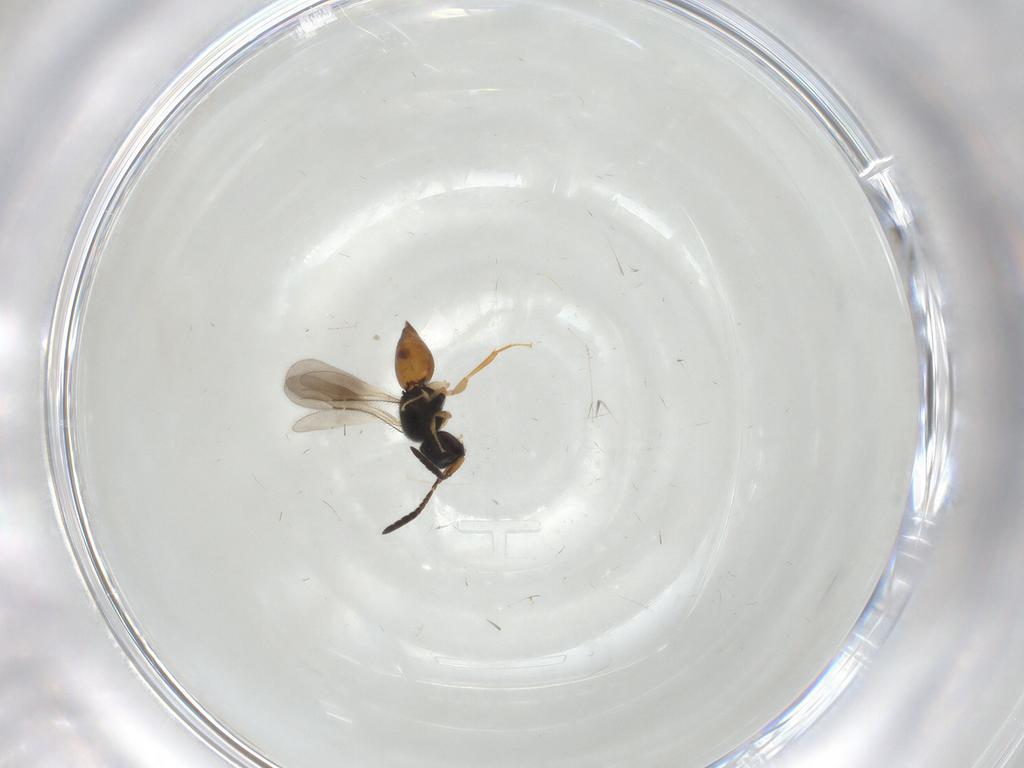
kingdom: Animalia
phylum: Arthropoda
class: Insecta
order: Hymenoptera
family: Ceraphronidae
